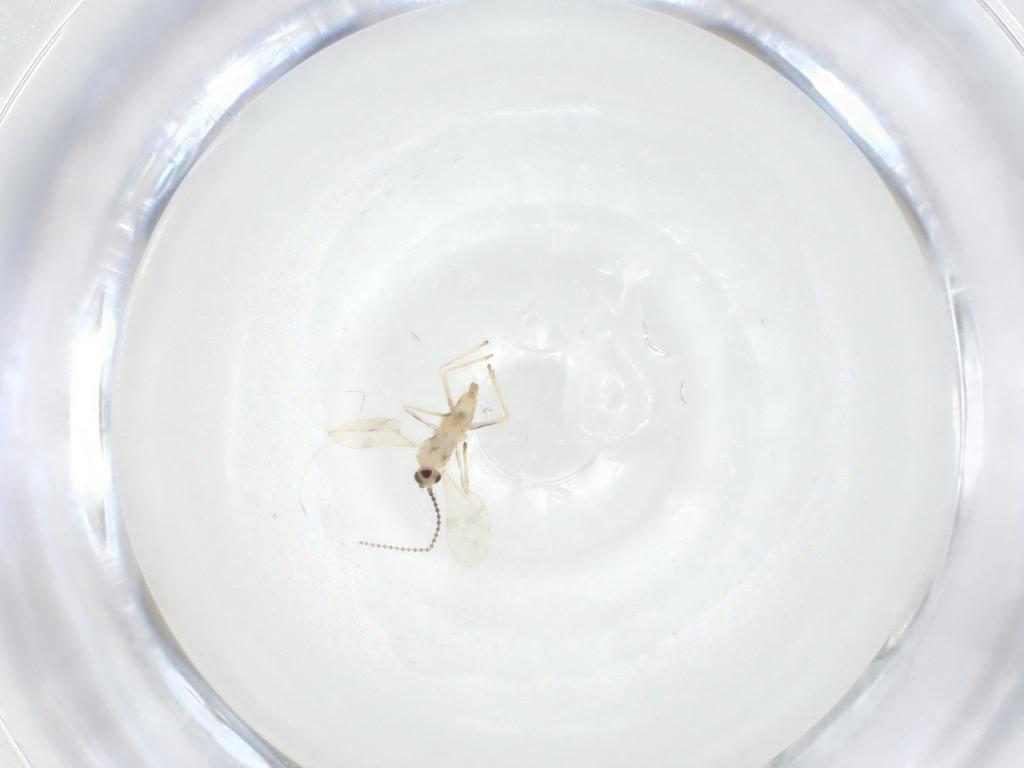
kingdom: Animalia
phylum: Arthropoda
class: Insecta
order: Diptera
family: Cecidomyiidae
